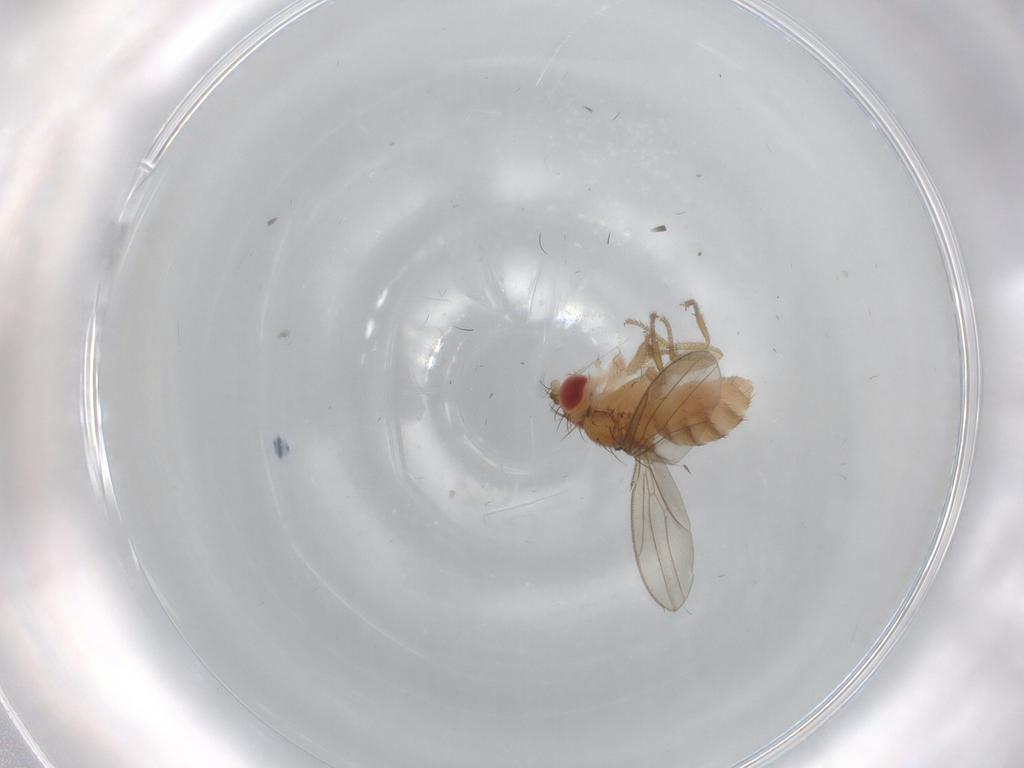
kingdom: Animalia
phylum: Arthropoda
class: Insecta
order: Diptera
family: Drosophilidae
